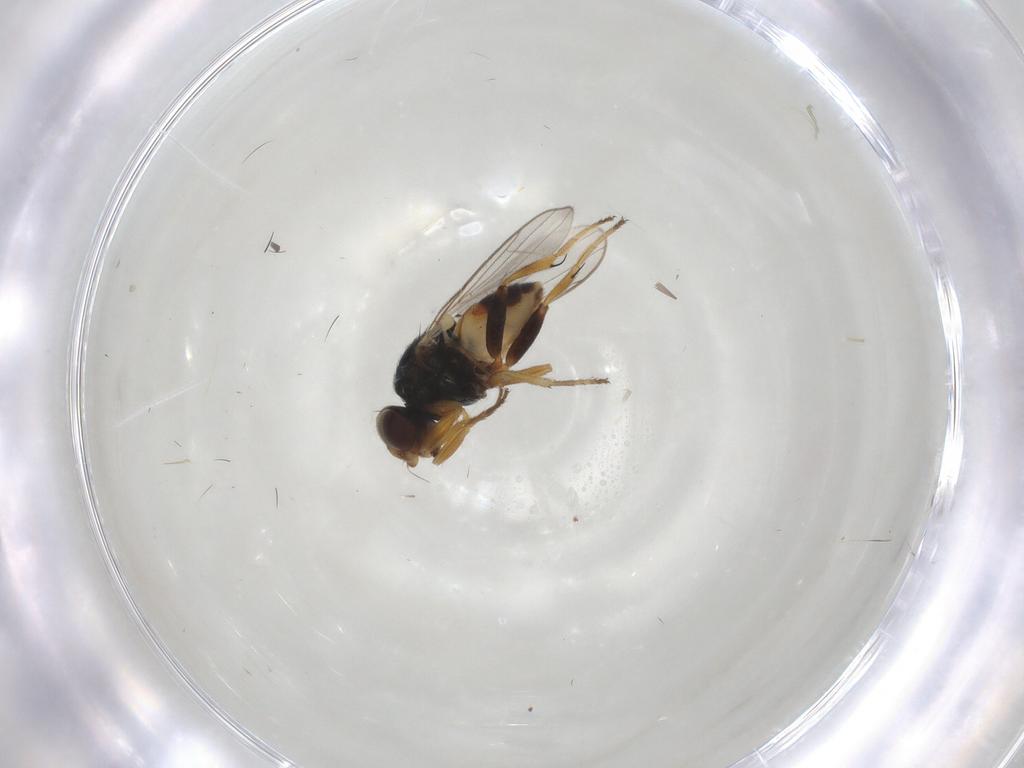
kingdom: Animalia
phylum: Arthropoda
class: Insecta
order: Diptera
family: Chloropidae
